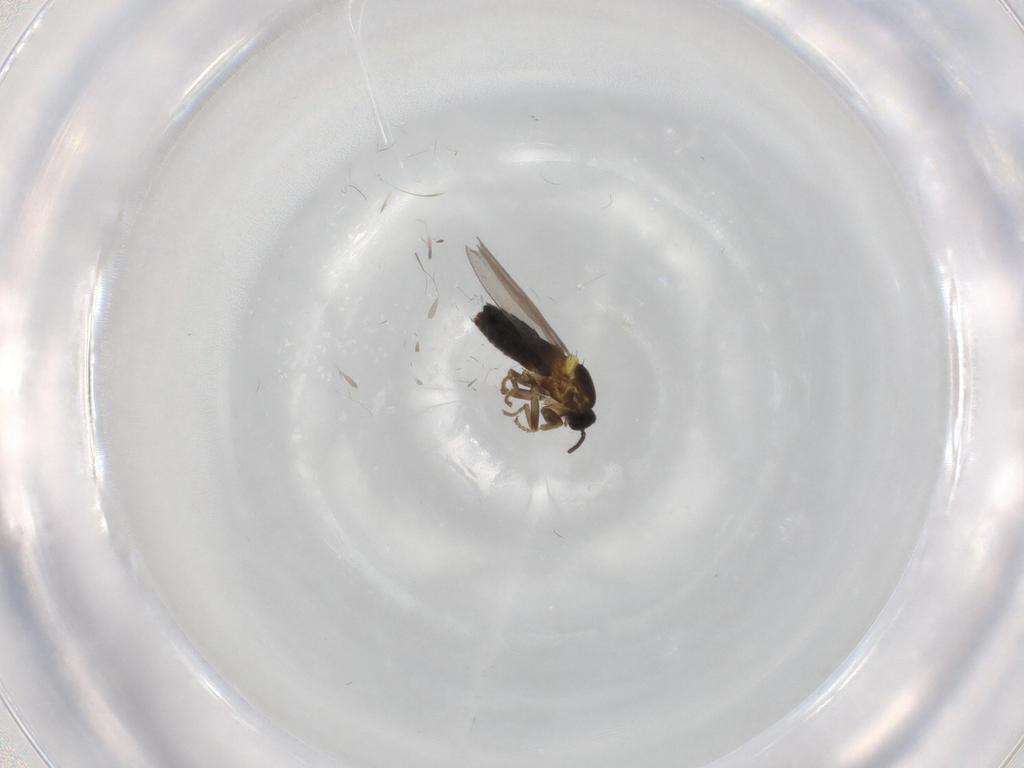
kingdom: Animalia
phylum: Arthropoda
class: Insecta
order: Diptera
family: Scatopsidae
